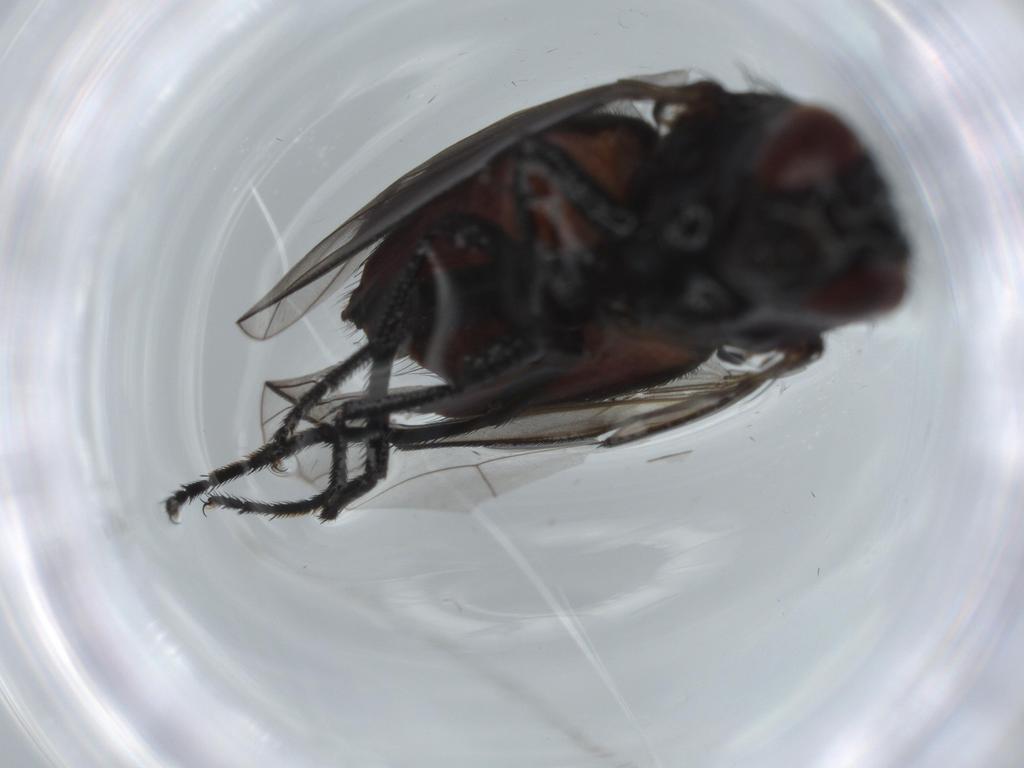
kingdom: Animalia
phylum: Arthropoda
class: Insecta
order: Diptera
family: Milichiidae
